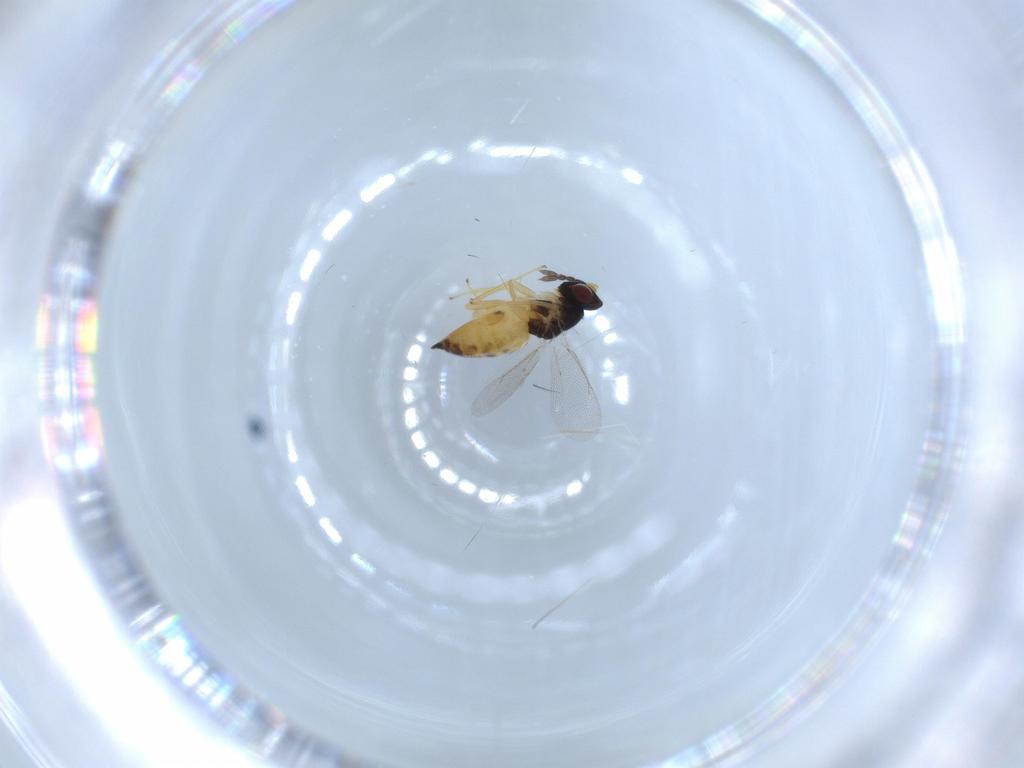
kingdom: Animalia
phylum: Arthropoda
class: Insecta
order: Hymenoptera
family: Eulophidae
